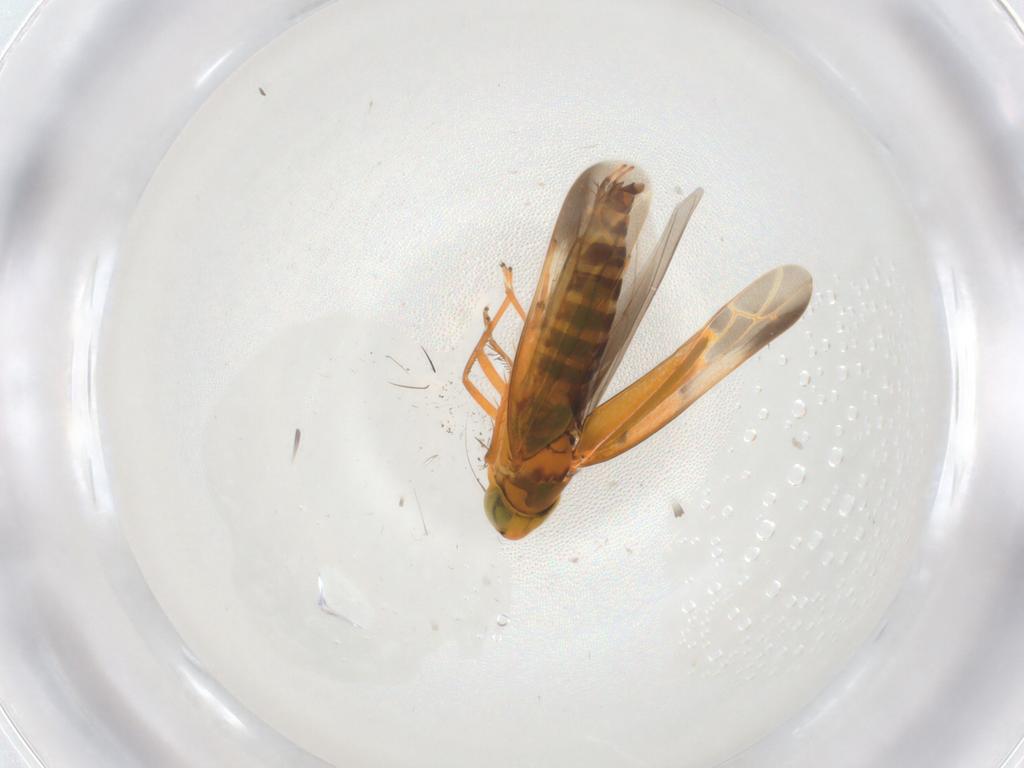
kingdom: Animalia
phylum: Arthropoda
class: Insecta
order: Hemiptera
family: Cicadellidae
